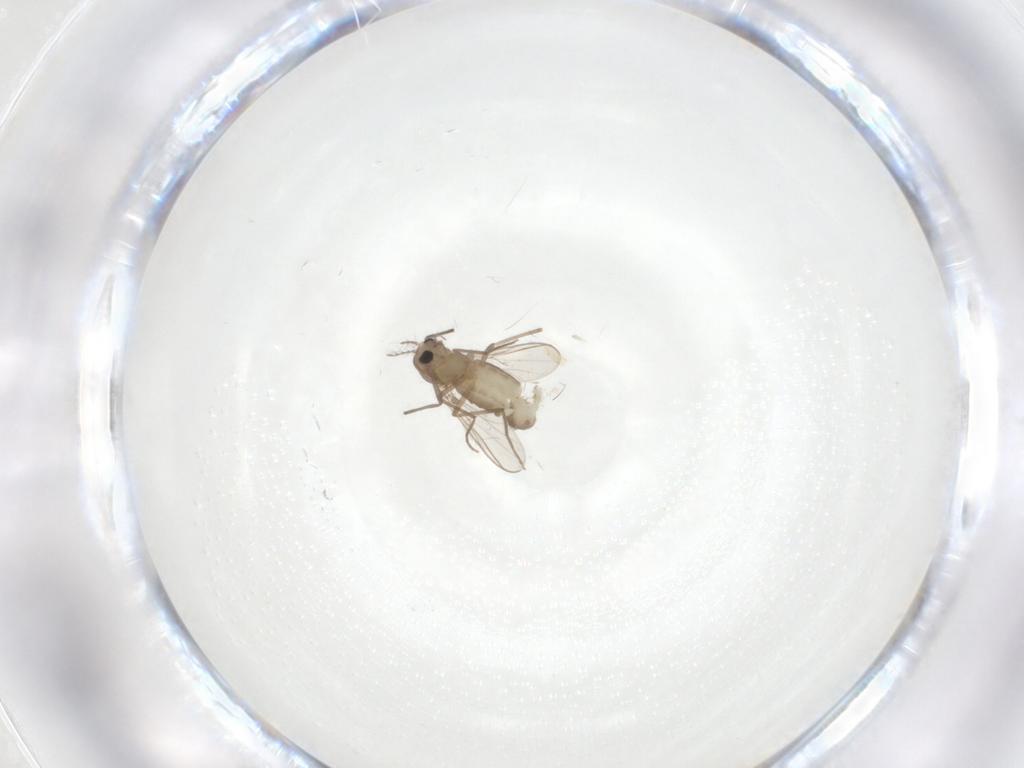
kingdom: Animalia
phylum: Arthropoda
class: Insecta
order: Diptera
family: Chironomidae
